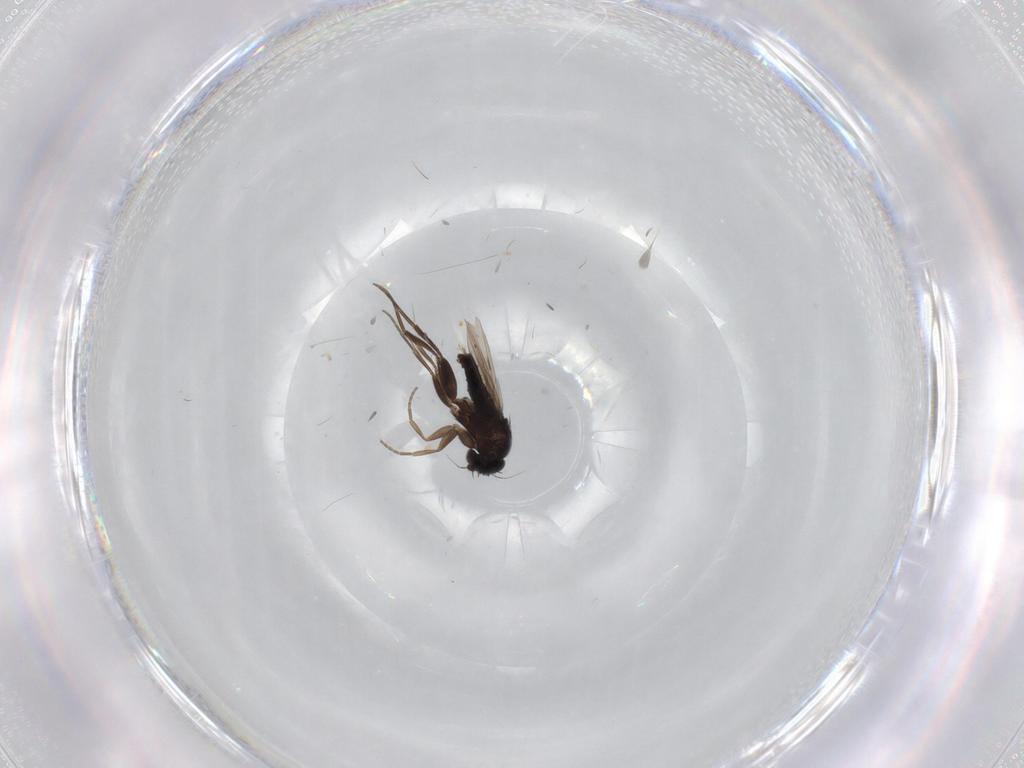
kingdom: Animalia
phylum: Arthropoda
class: Insecta
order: Diptera
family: Phoridae
